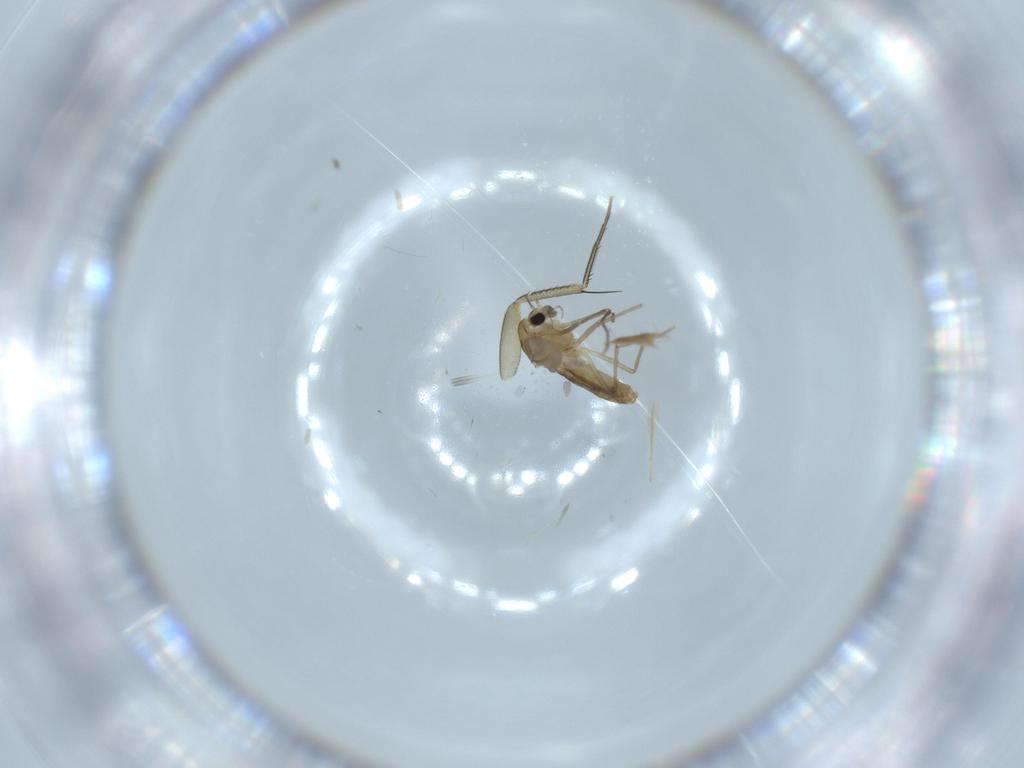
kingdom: Animalia
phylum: Arthropoda
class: Insecta
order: Diptera
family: Chironomidae
